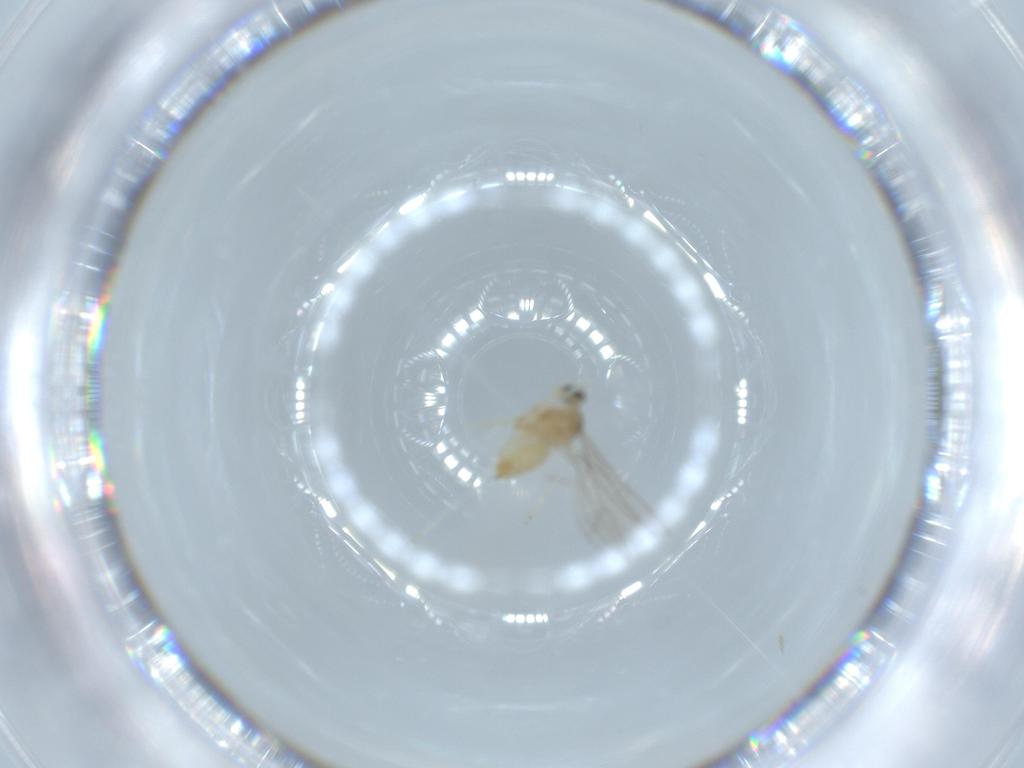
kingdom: Animalia
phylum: Arthropoda
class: Insecta
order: Diptera
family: Cecidomyiidae
